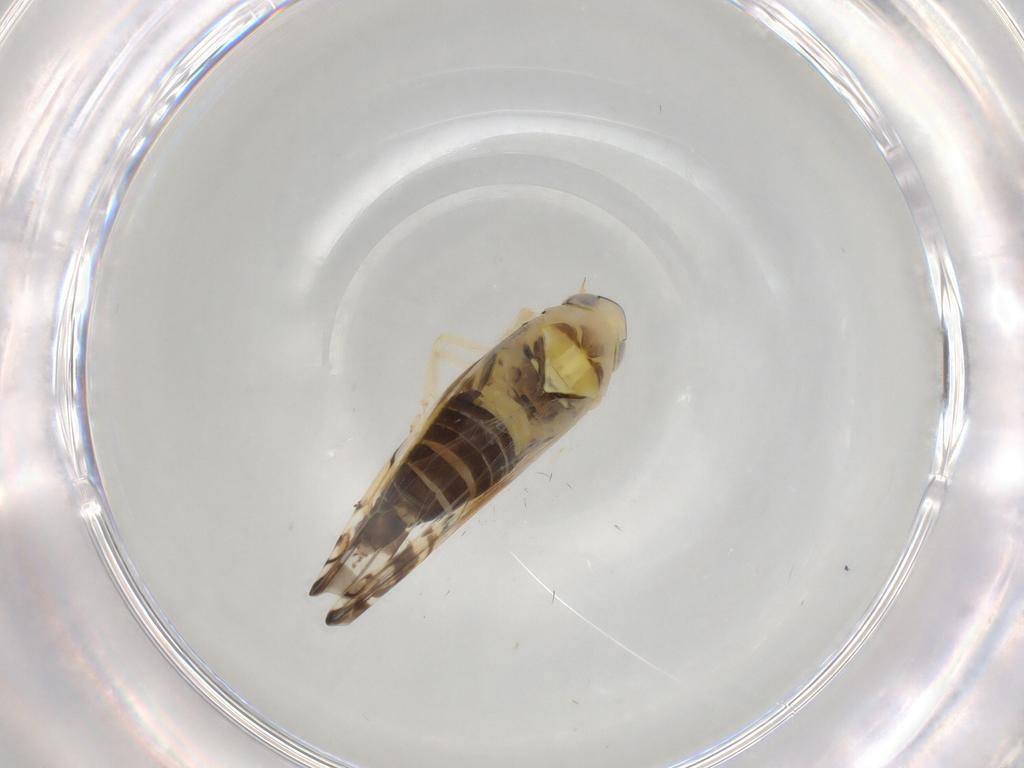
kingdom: Animalia
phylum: Arthropoda
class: Insecta
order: Hemiptera
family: Cicadellidae
